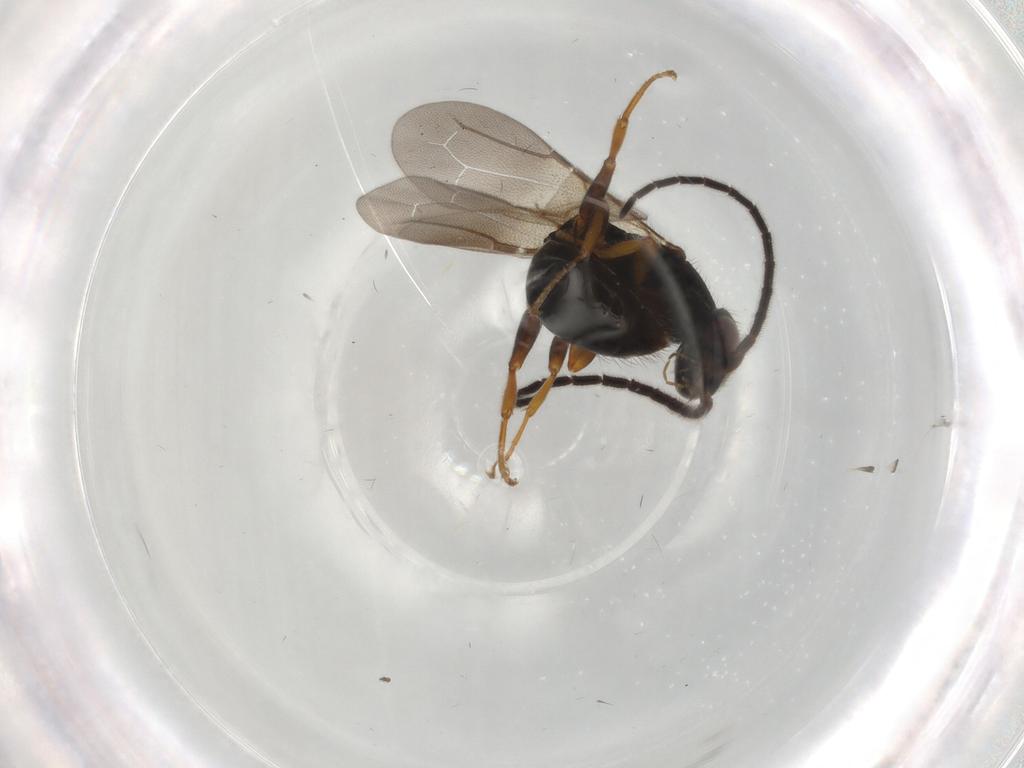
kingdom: Animalia
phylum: Arthropoda
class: Insecta
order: Hymenoptera
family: Bethylidae
